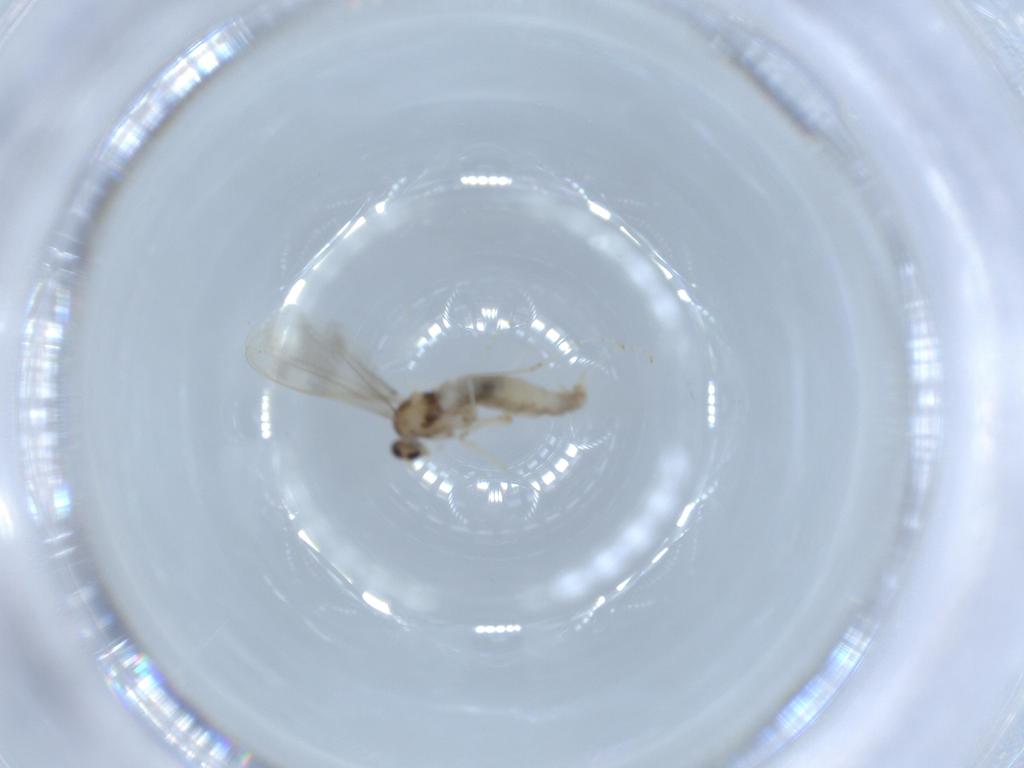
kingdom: Animalia
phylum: Arthropoda
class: Insecta
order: Diptera
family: Cecidomyiidae
